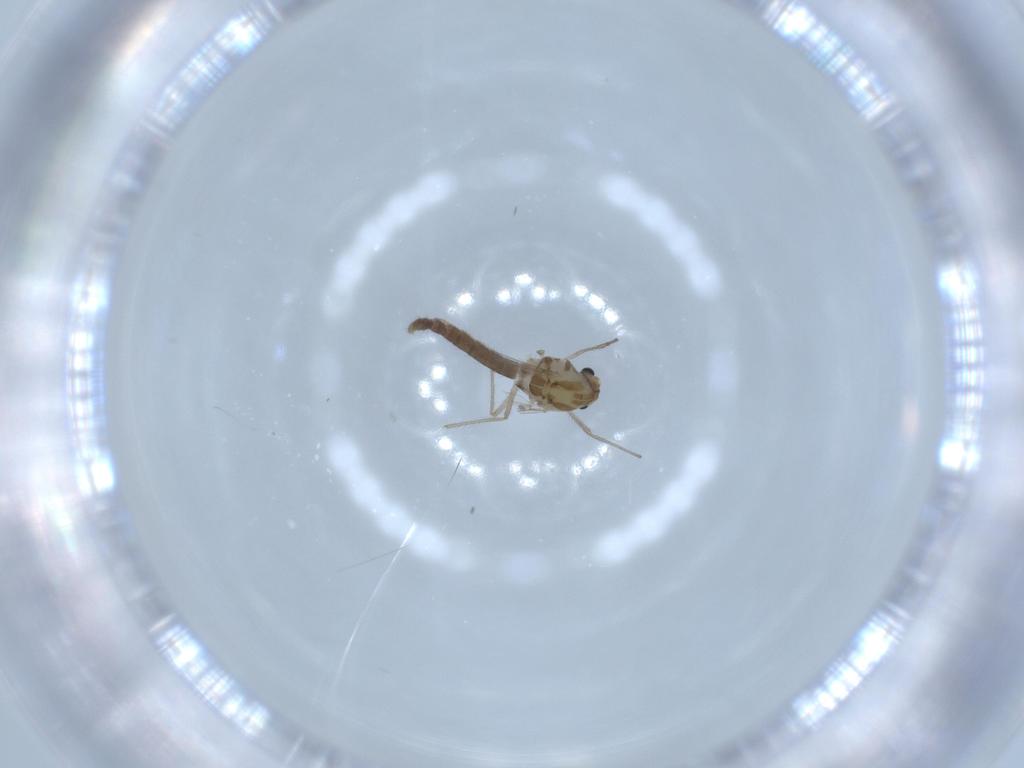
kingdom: Animalia
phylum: Arthropoda
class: Insecta
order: Diptera
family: Chironomidae
